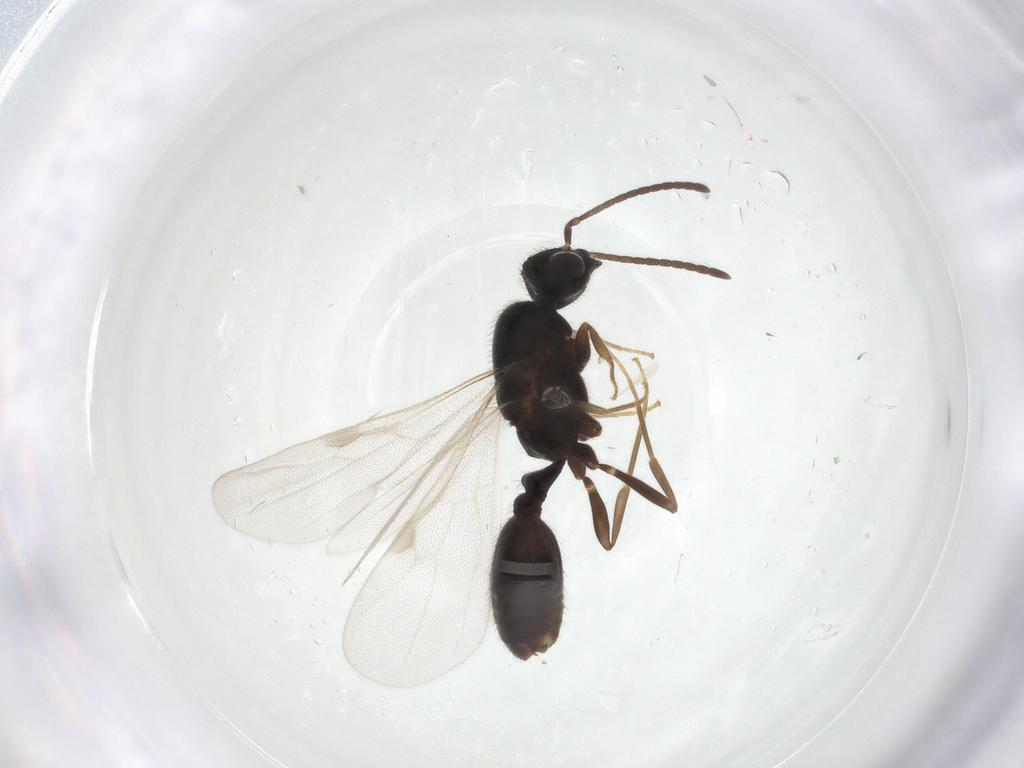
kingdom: Animalia
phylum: Arthropoda
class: Insecta
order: Hymenoptera
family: Formicidae
